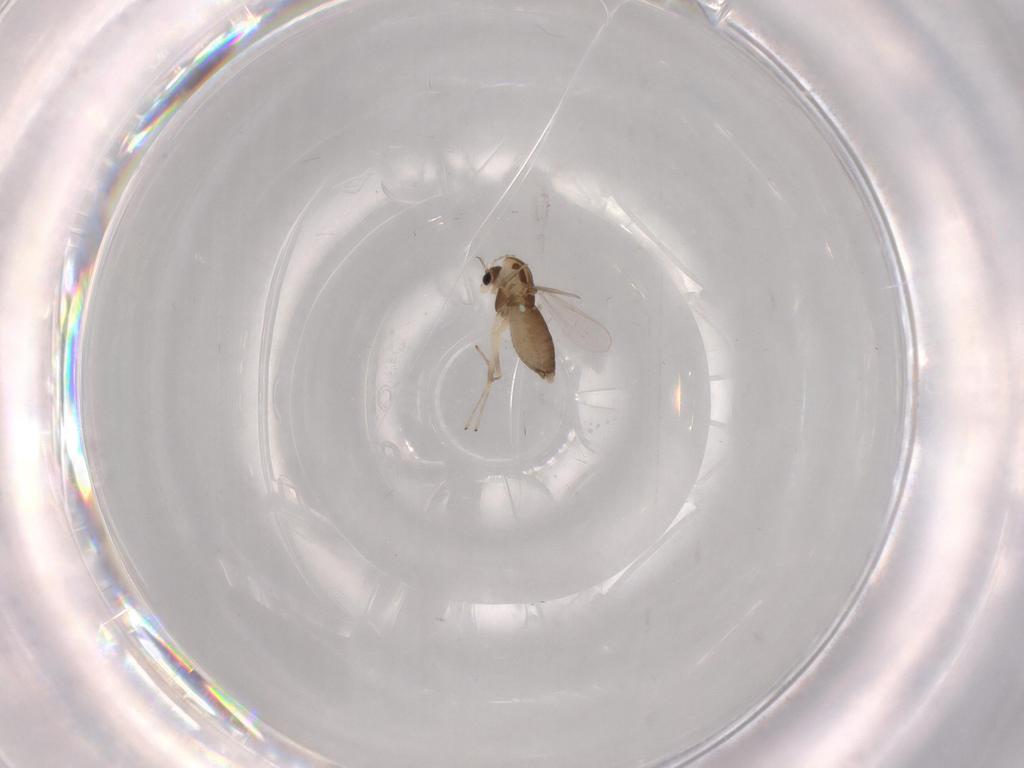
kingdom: Animalia
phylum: Arthropoda
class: Insecta
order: Diptera
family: Chironomidae
